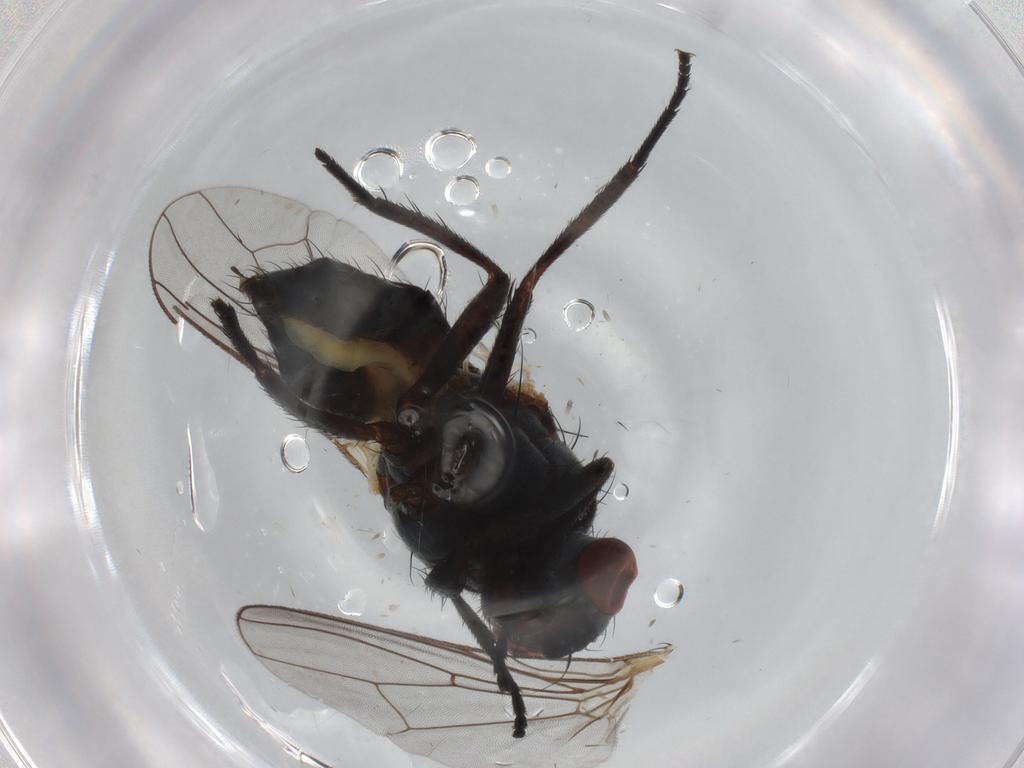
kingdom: Animalia
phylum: Arthropoda
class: Insecta
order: Diptera
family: Anthomyiidae
